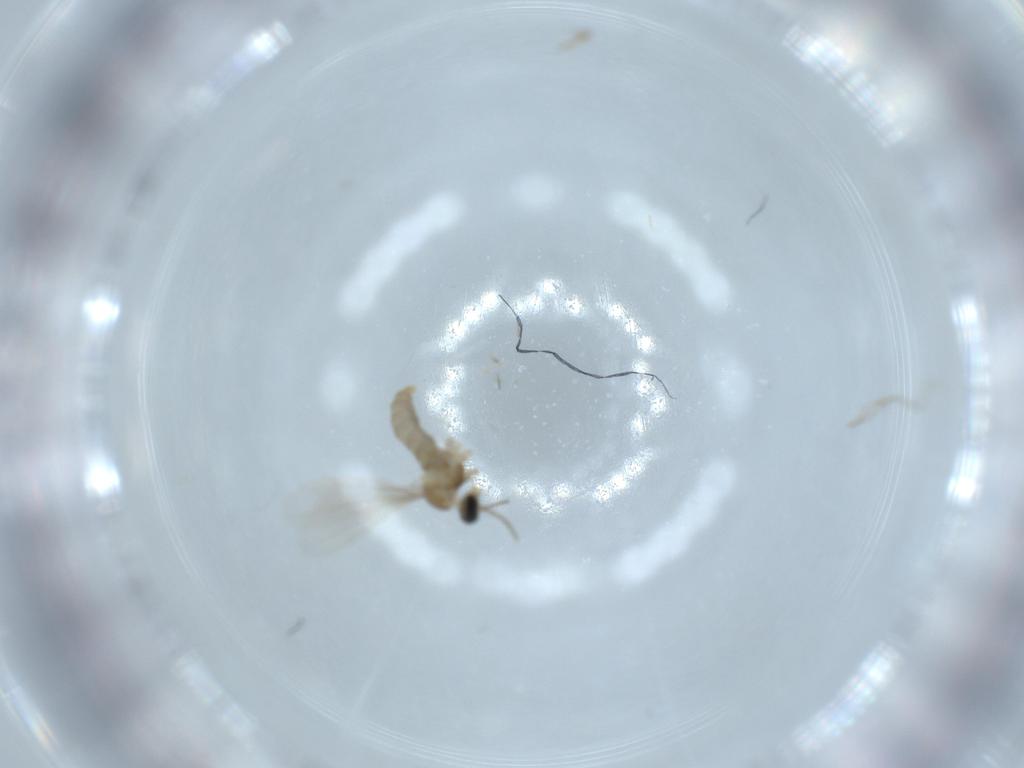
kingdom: Animalia
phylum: Arthropoda
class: Insecta
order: Diptera
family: Cecidomyiidae
